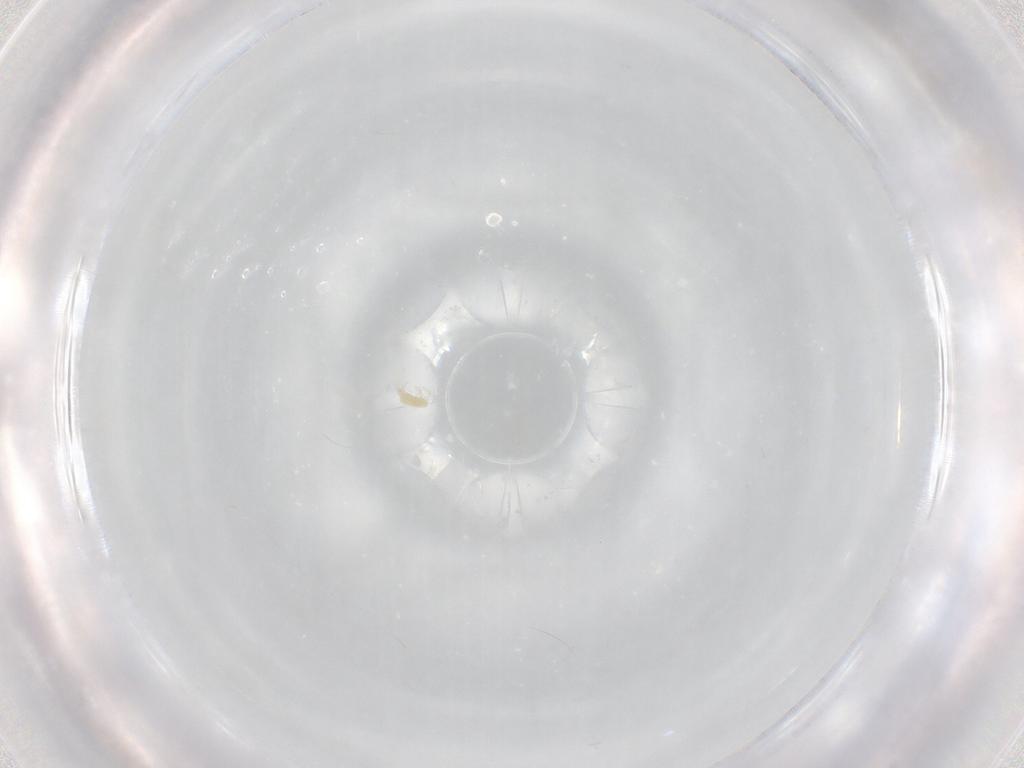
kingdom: Animalia
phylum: Arthropoda
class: Arachnida
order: Trombidiformes
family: Tetranychidae
